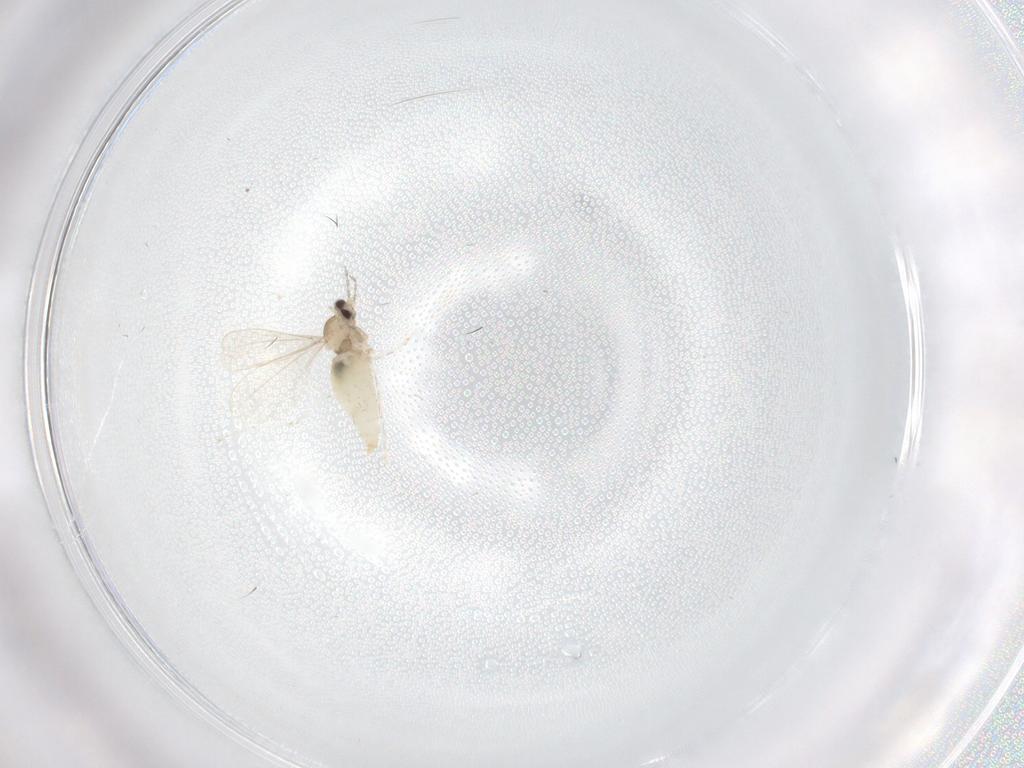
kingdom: Animalia
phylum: Arthropoda
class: Insecta
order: Diptera
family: Cecidomyiidae
